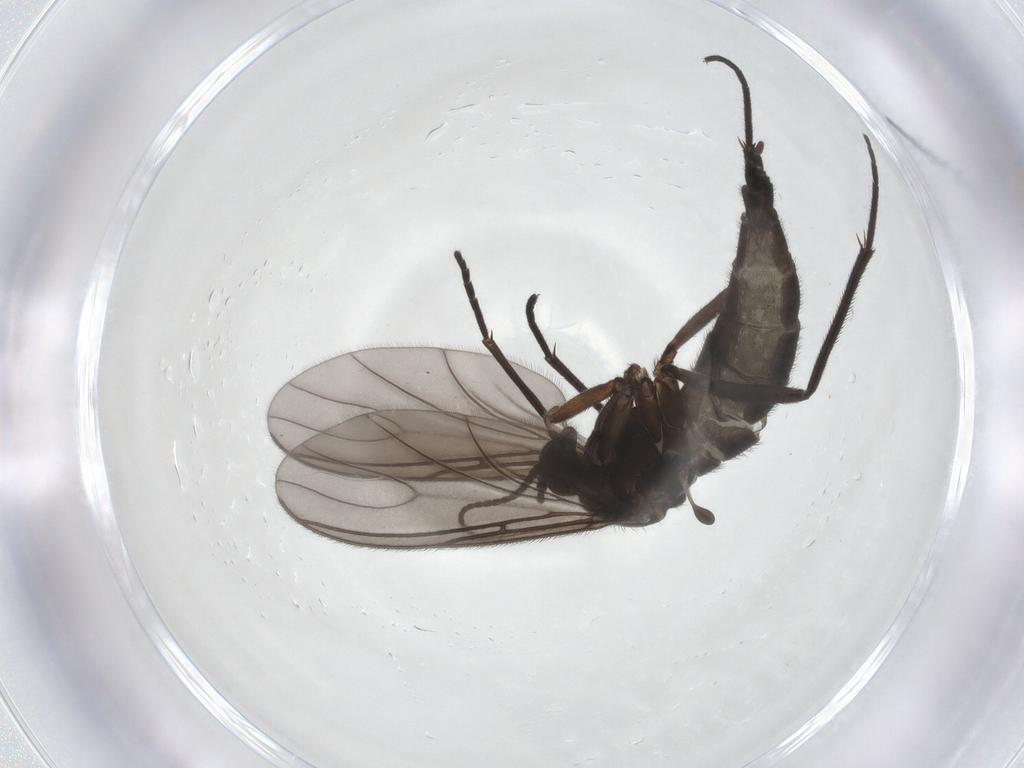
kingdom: Animalia
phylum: Arthropoda
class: Insecta
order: Diptera
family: Sciaridae
